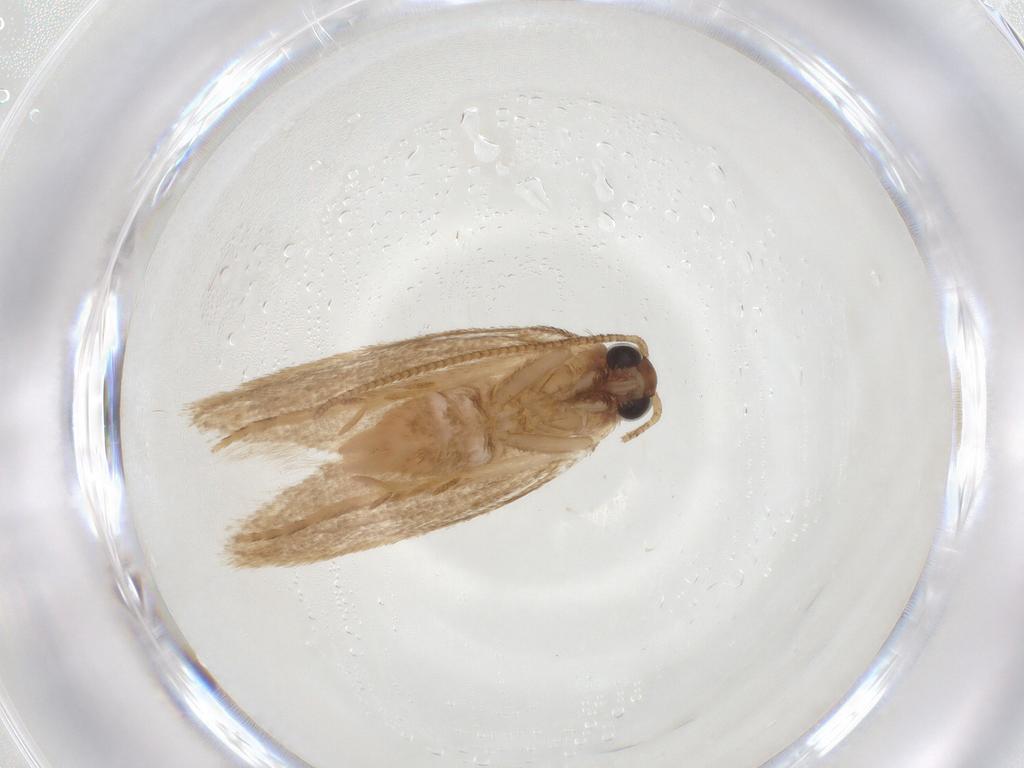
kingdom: Animalia
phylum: Arthropoda
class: Insecta
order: Lepidoptera
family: Autostichidae
